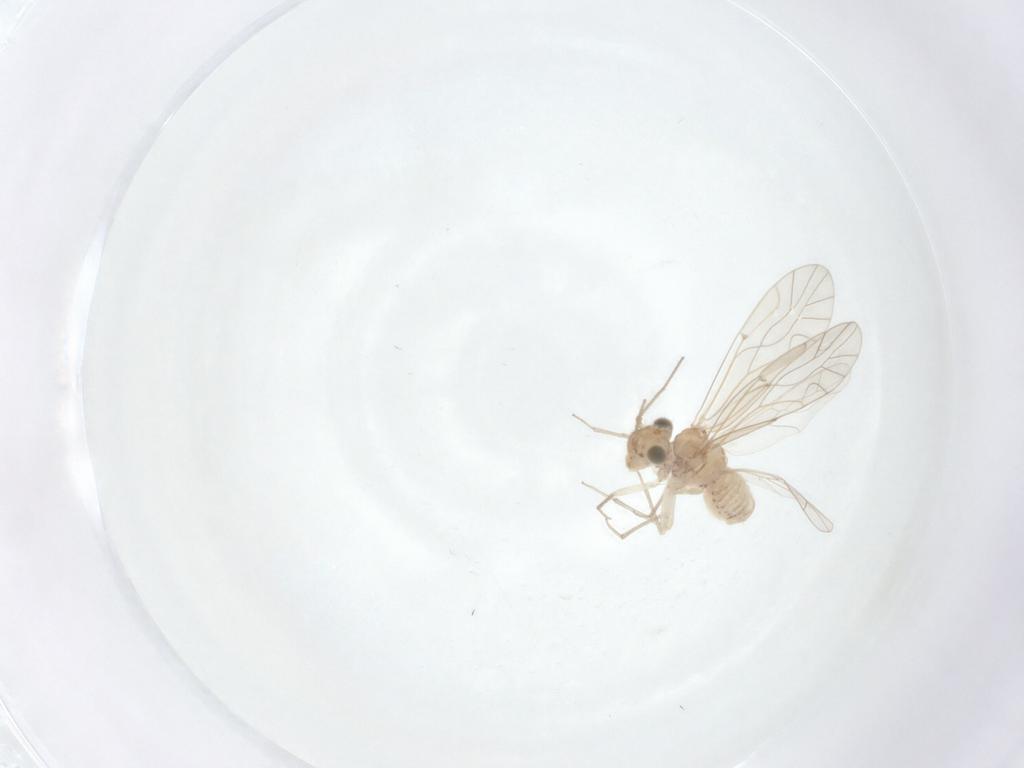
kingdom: Animalia
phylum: Arthropoda
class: Insecta
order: Psocodea
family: Lachesillidae
